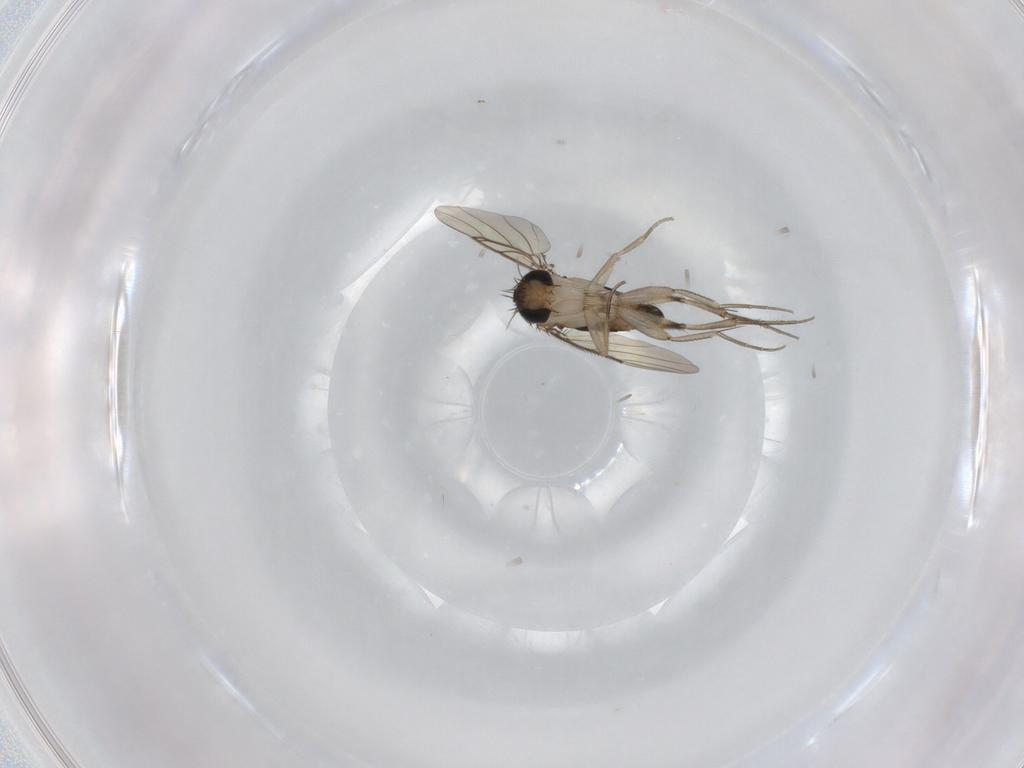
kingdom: Animalia
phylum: Arthropoda
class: Insecta
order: Diptera
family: Phoridae
